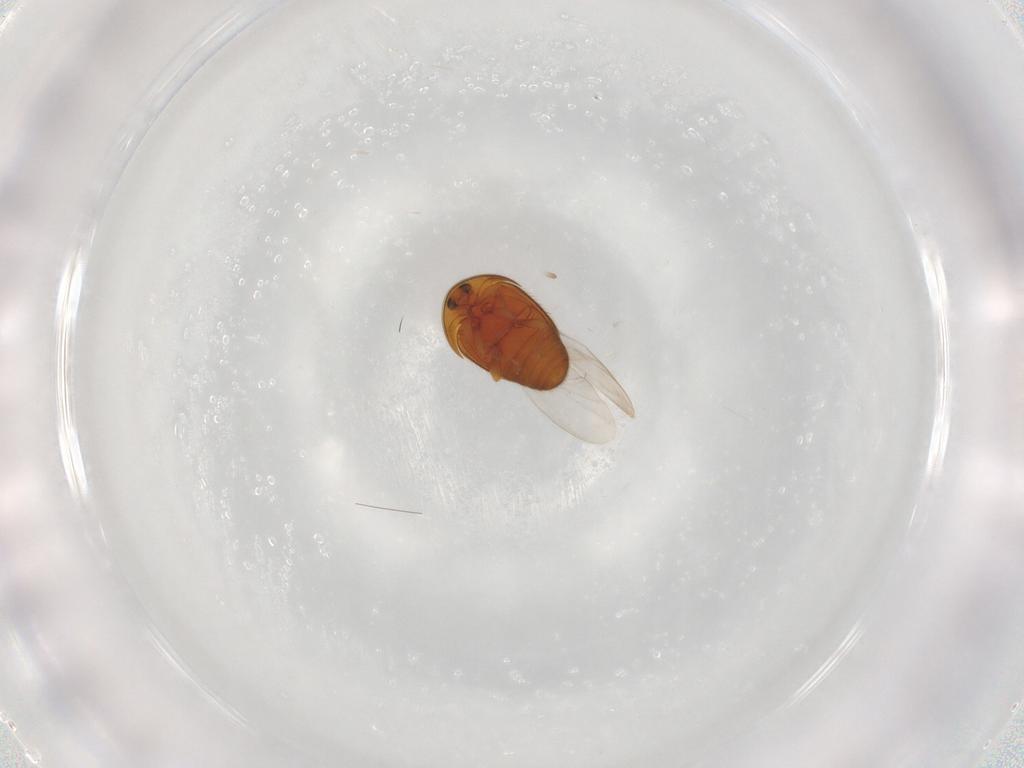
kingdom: Animalia
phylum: Arthropoda
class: Insecta
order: Coleoptera
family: Corylophidae
